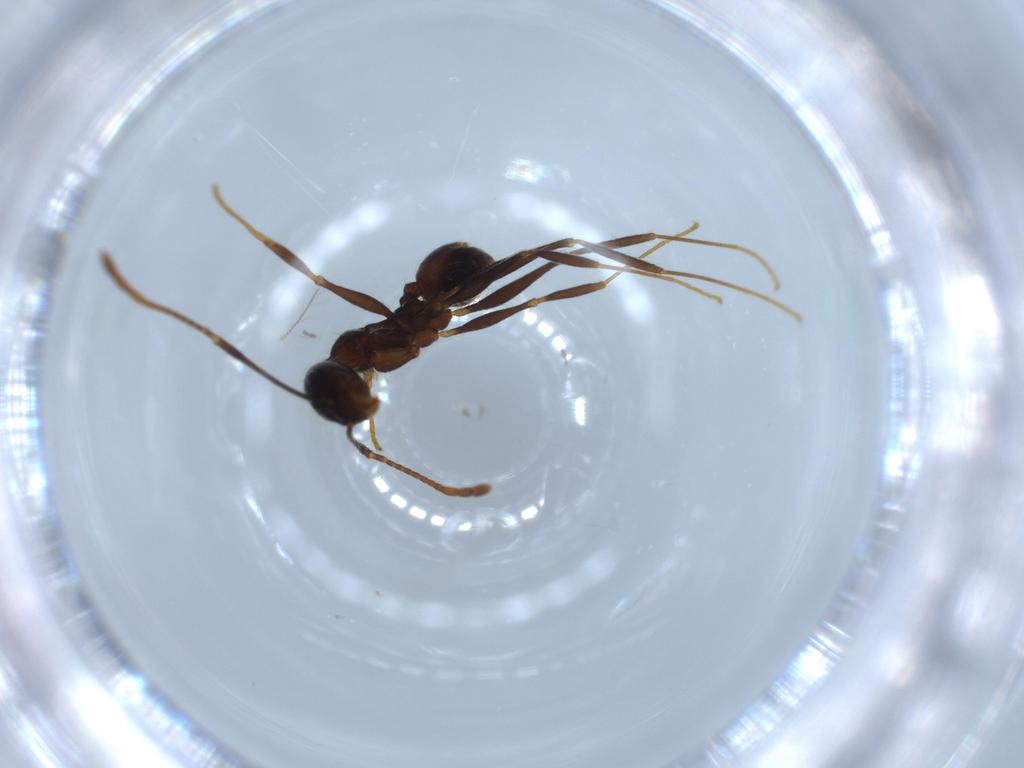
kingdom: Animalia
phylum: Arthropoda
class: Insecta
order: Hymenoptera
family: Formicidae
